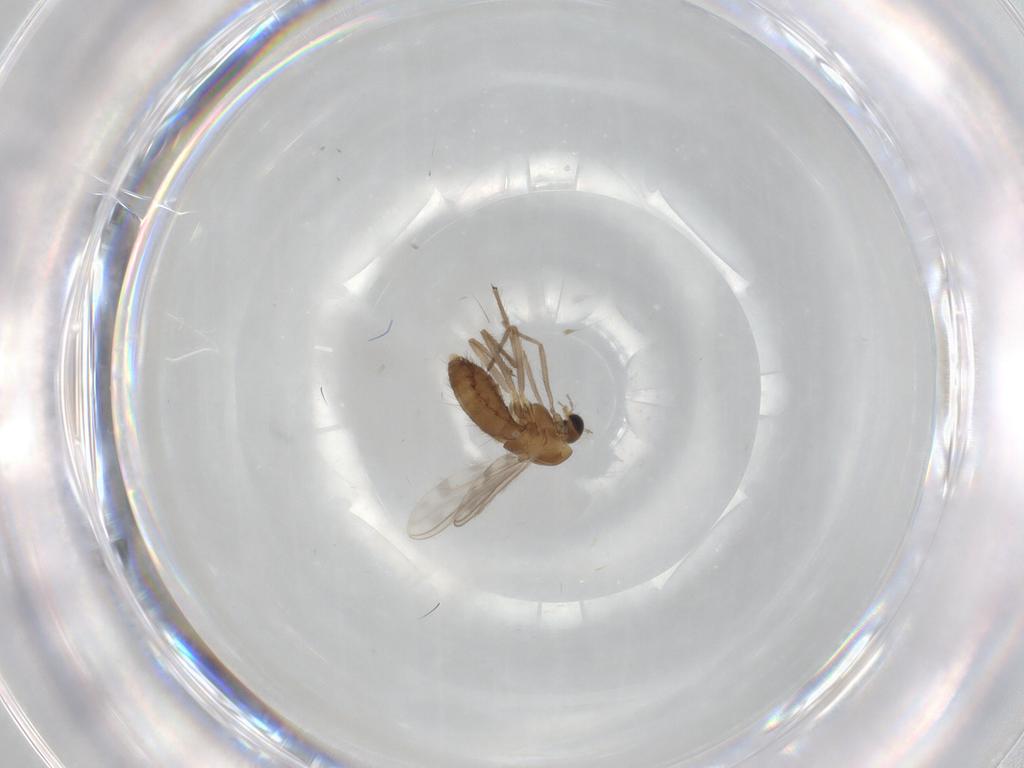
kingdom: Animalia
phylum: Arthropoda
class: Insecta
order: Diptera
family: Chironomidae
